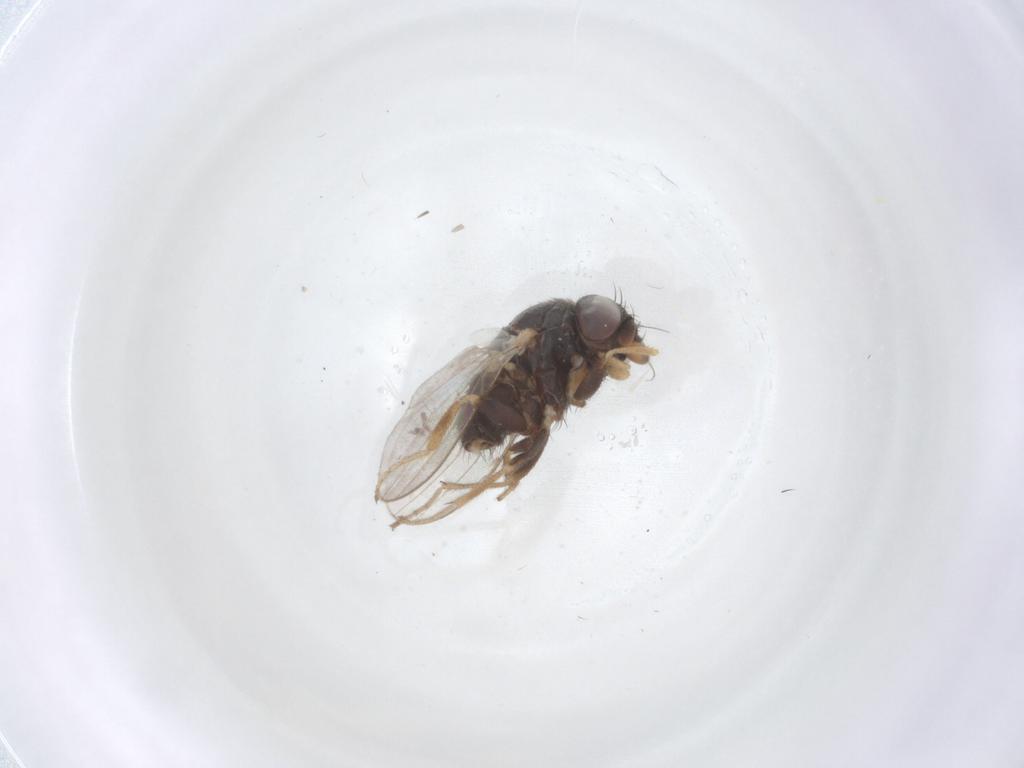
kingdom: Animalia
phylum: Arthropoda
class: Insecta
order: Diptera
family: Milichiidae
